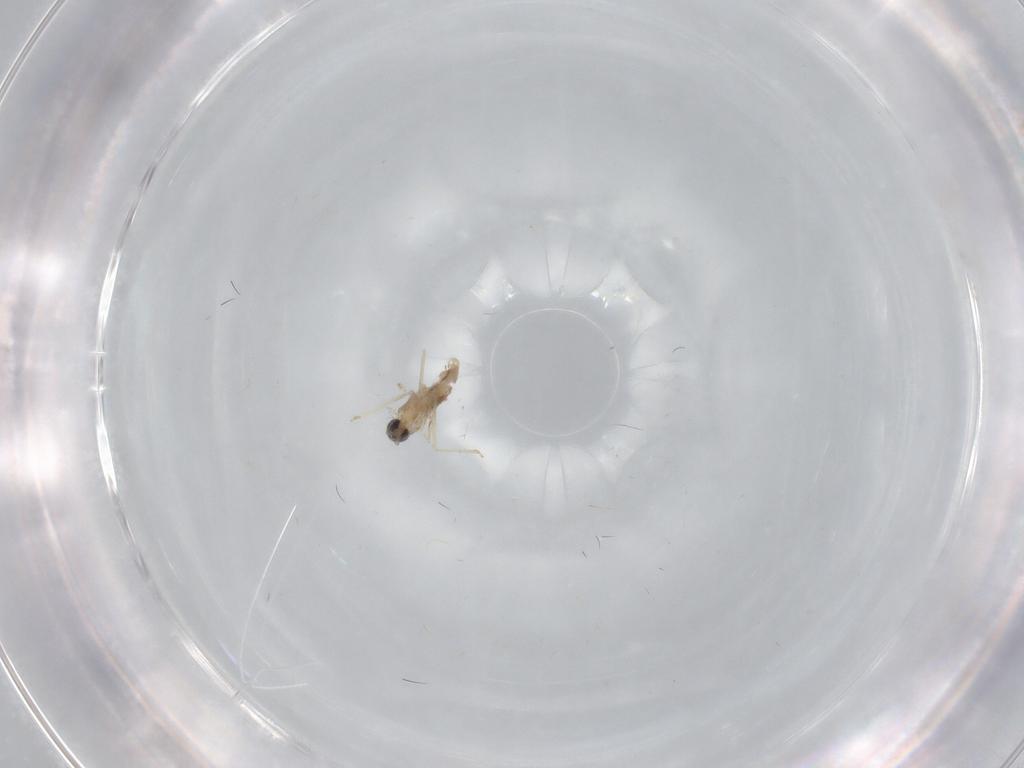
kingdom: Animalia
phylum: Arthropoda
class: Insecta
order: Diptera
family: Cecidomyiidae
